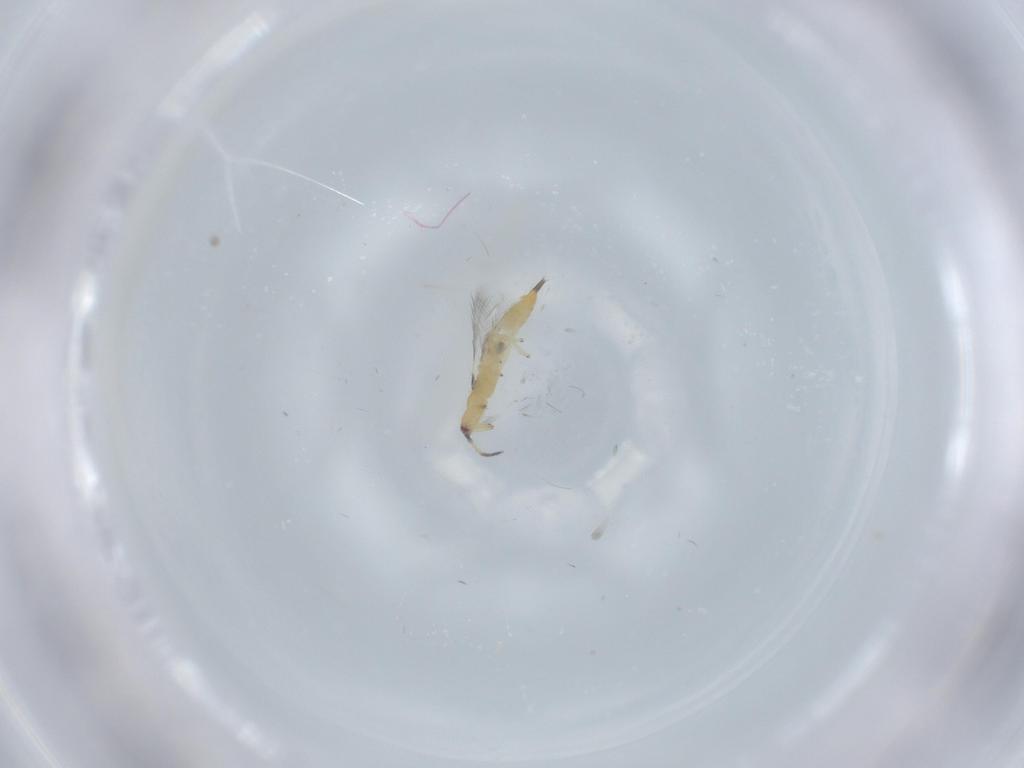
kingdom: Animalia
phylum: Arthropoda
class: Insecta
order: Thysanoptera
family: Phlaeothripidae
